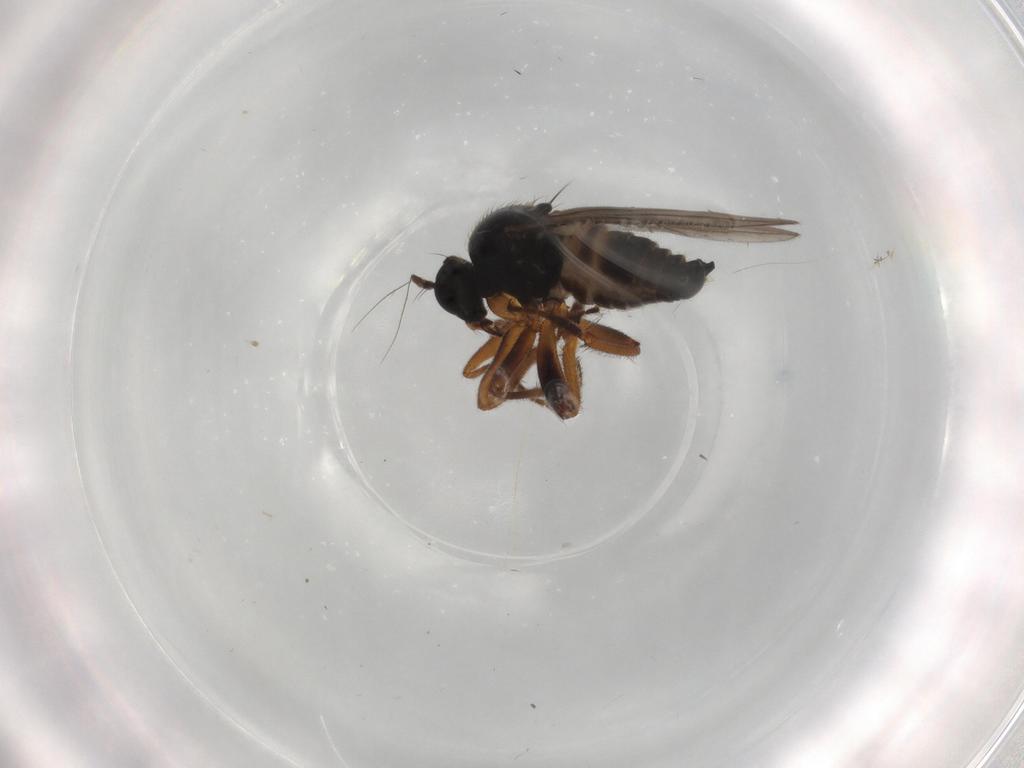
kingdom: Animalia
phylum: Arthropoda
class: Insecta
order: Diptera
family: Hybotidae
